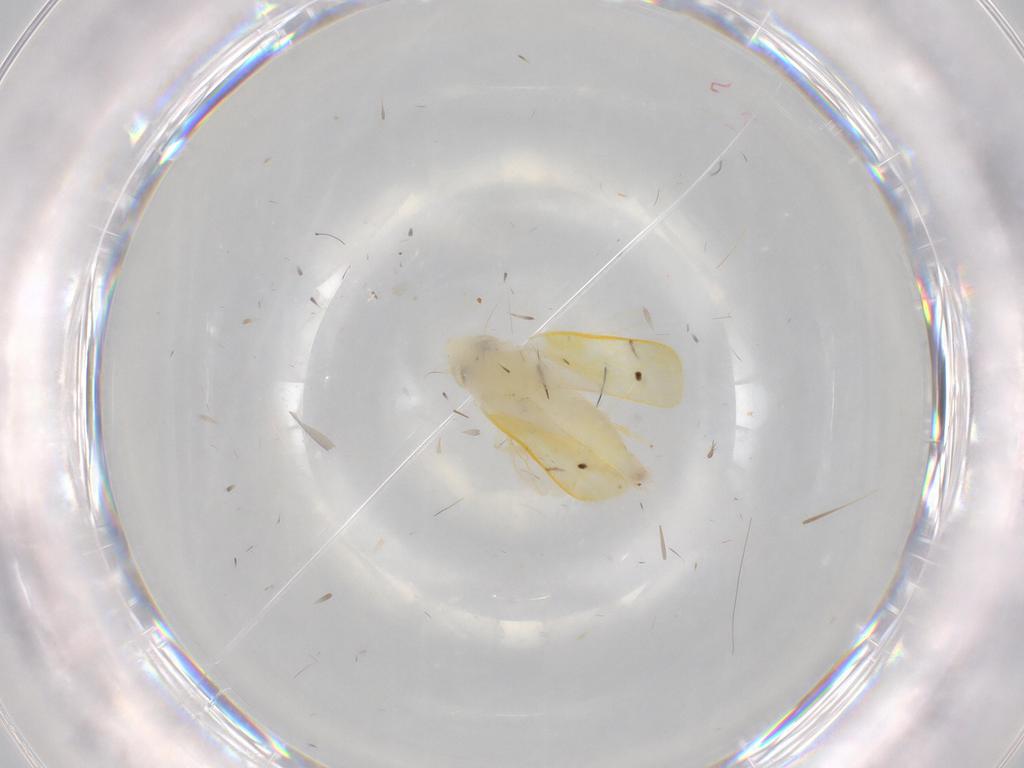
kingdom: Animalia
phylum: Arthropoda
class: Insecta
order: Hemiptera
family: Cicadellidae
